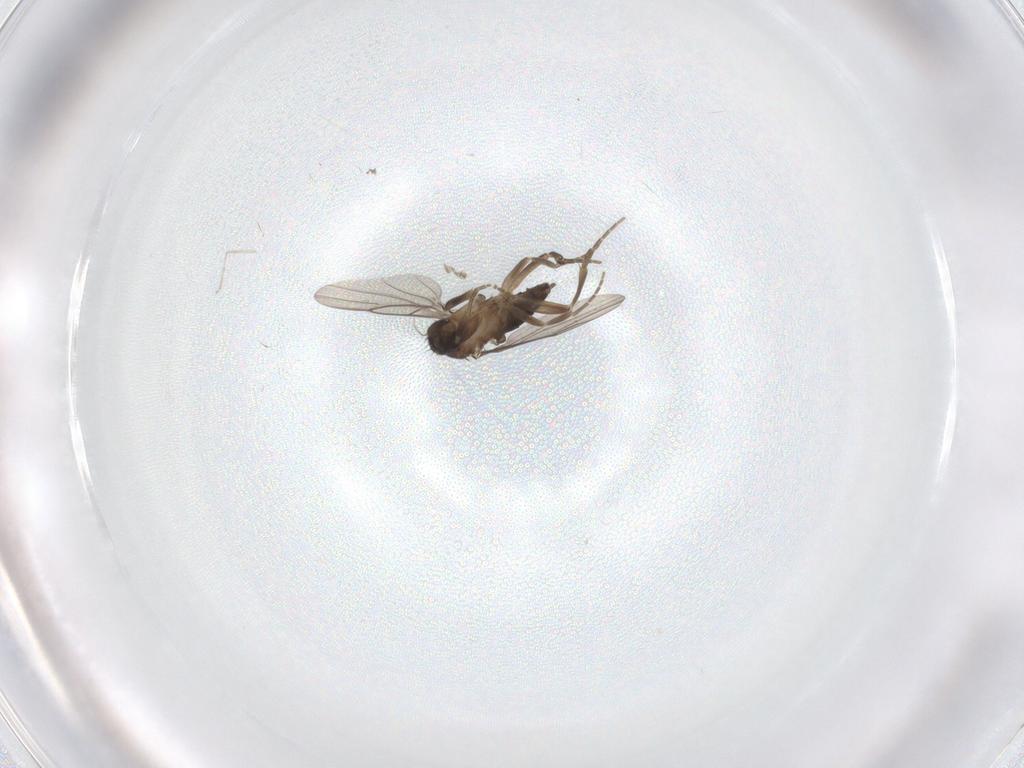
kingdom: Animalia
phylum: Arthropoda
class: Insecta
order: Diptera
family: Phoridae
